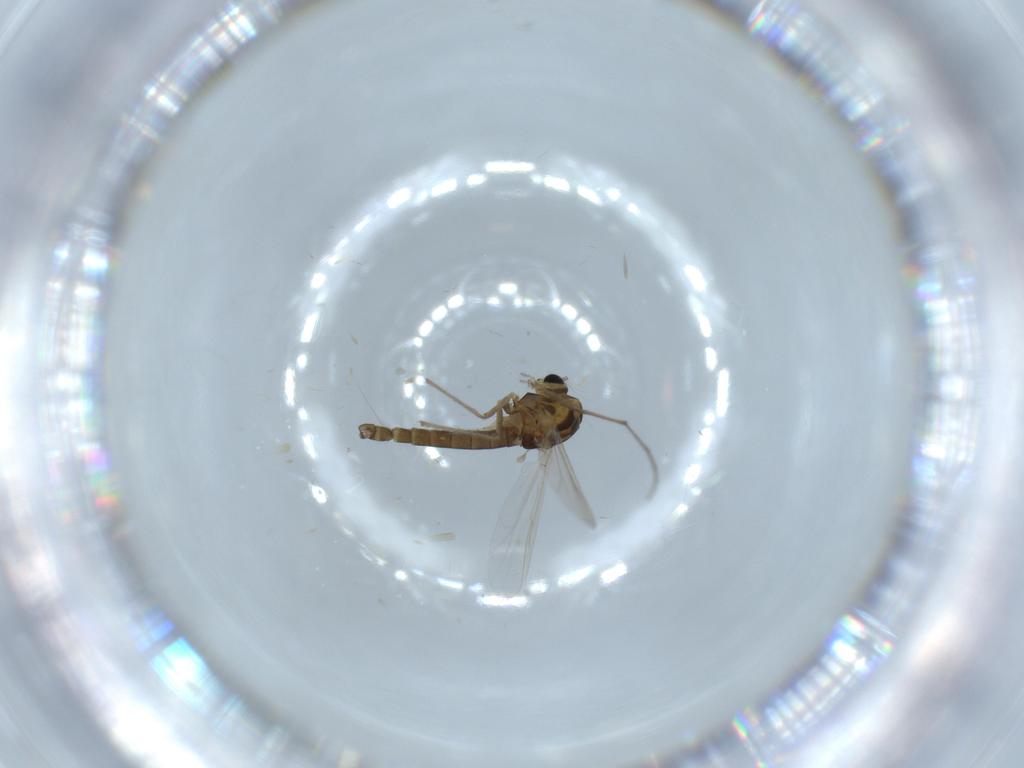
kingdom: Animalia
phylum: Arthropoda
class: Insecta
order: Diptera
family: Chironomidae
